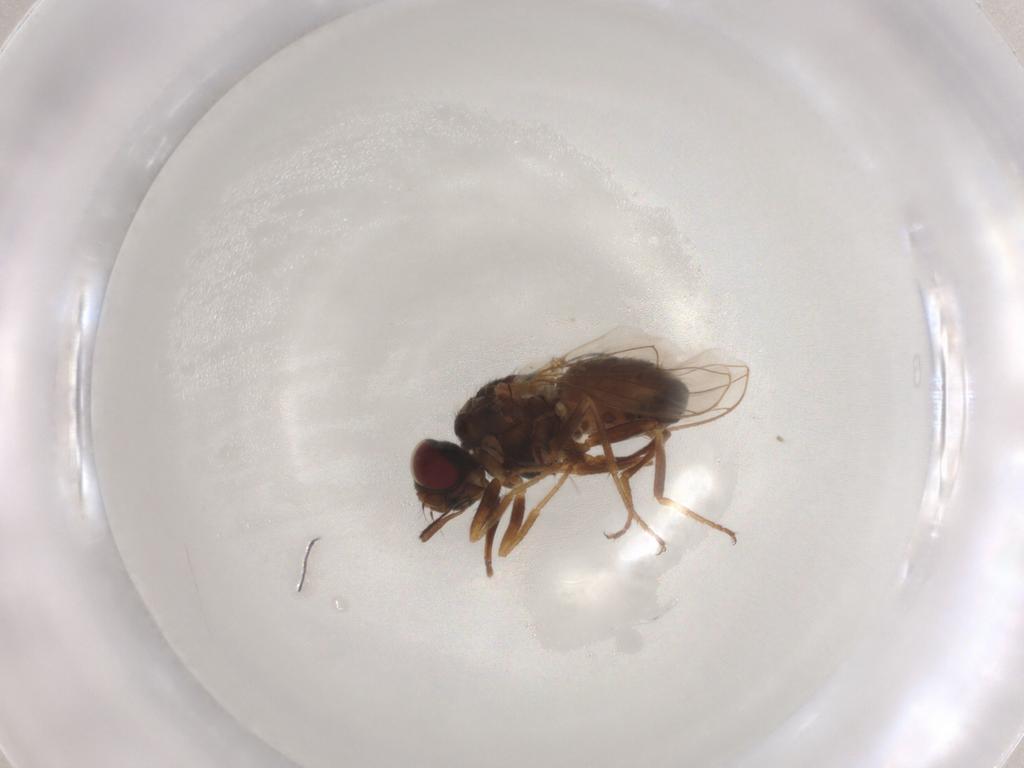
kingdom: Animalia
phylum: Arthropoda
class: Insecta
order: Diptera
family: Psychodidae
